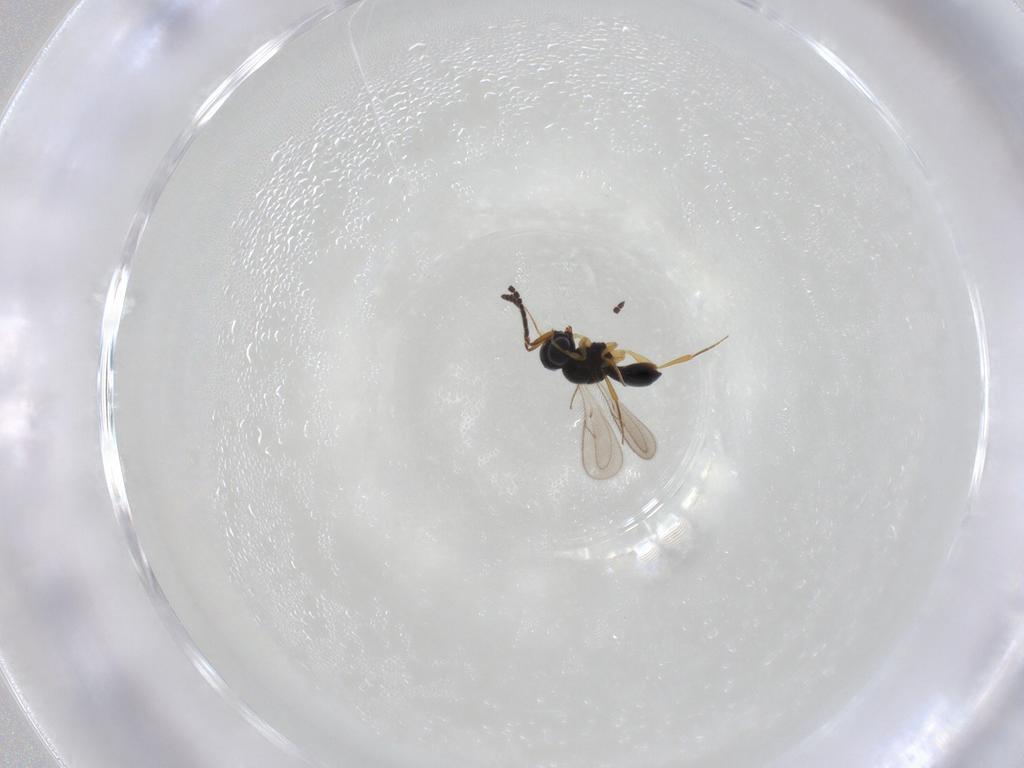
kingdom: Animalia
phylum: Arthropoda
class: Insecta
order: Hymenoptera
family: Scelionidae
